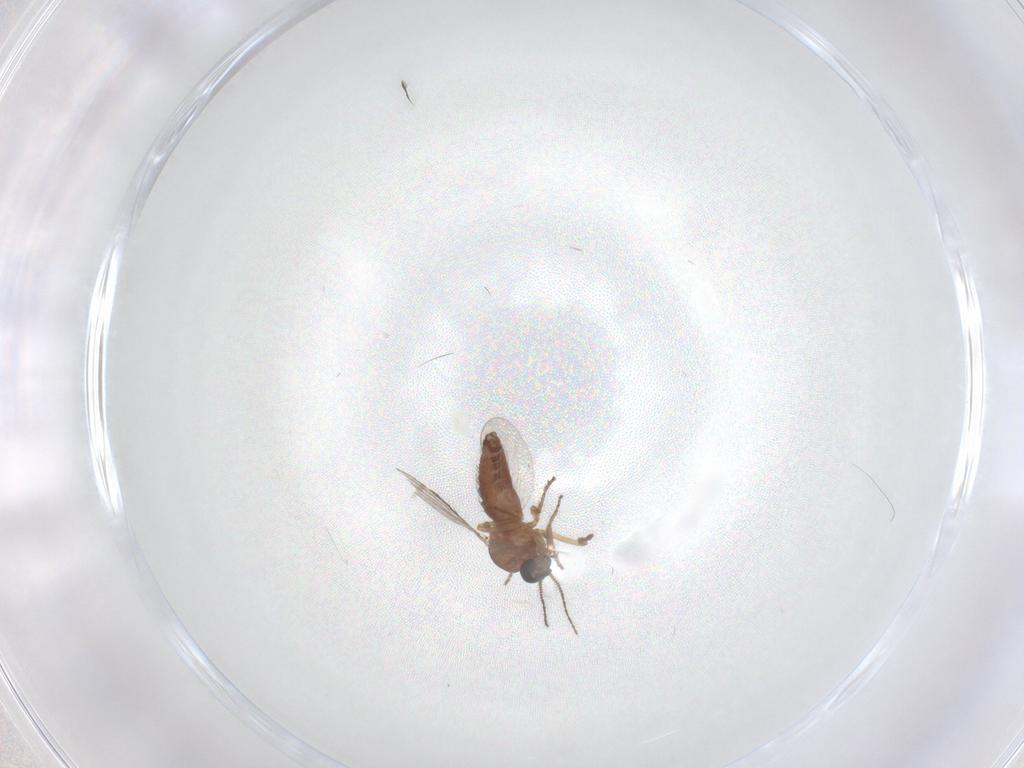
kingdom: Animalia
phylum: Arthropoda
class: Insecta
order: Diptera
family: Ceratopogonidae
